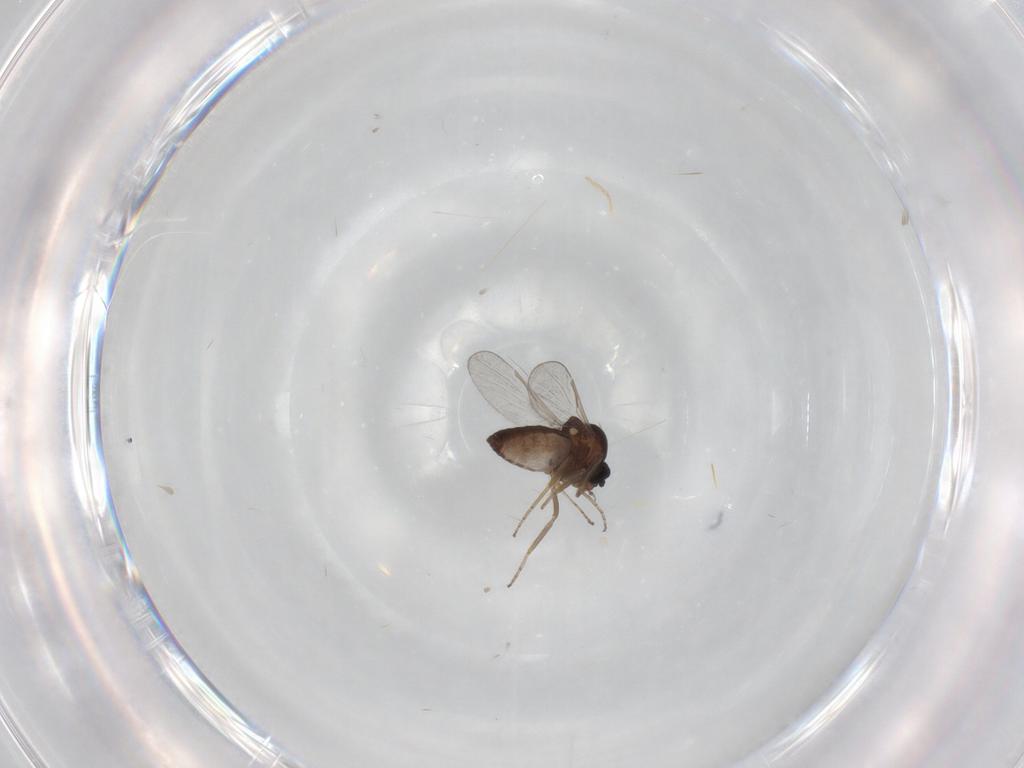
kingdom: Animalia
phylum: Arthropoda
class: Insecta
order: Diptera
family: Ceratopogonidae
